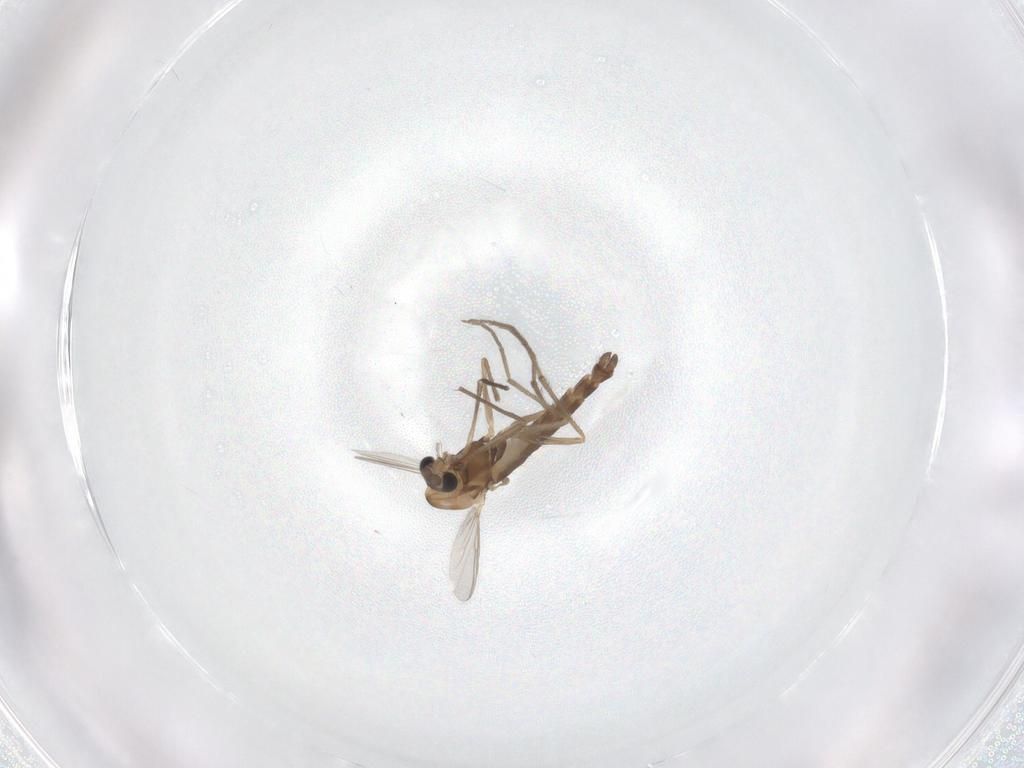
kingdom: Animalia
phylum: Arthropoda
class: Insecta
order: Diptera
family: Chironomidae
